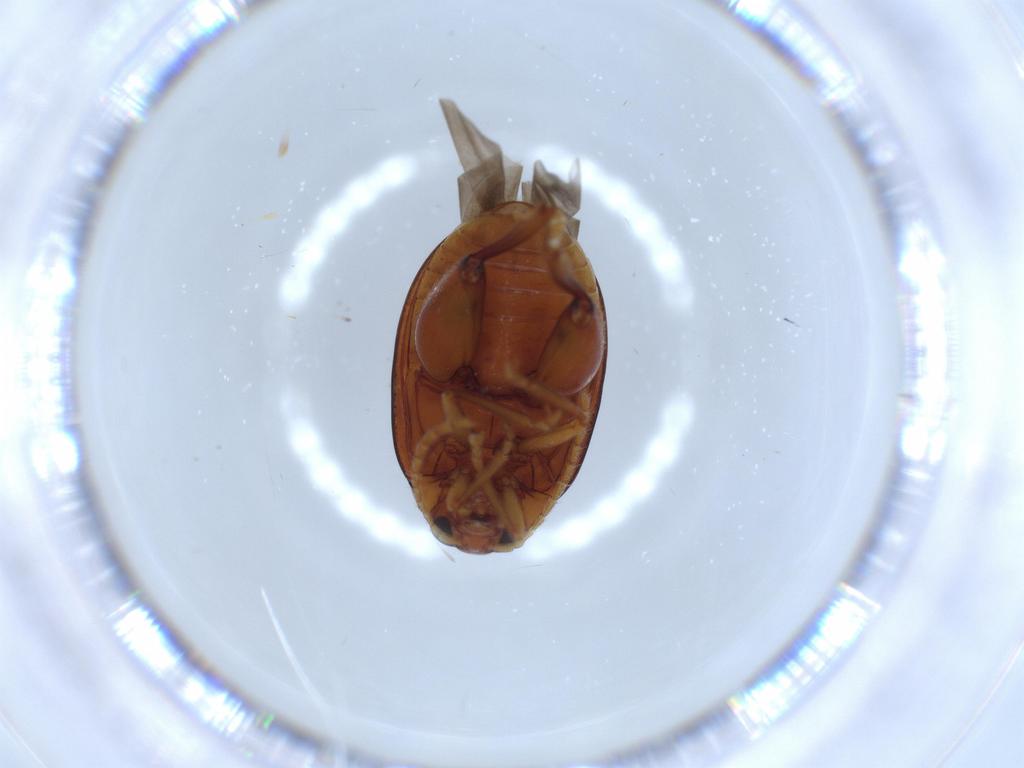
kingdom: Animalia
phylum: Arthropoda
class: Insecta
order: Coleoptera
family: Chrysomelidae
